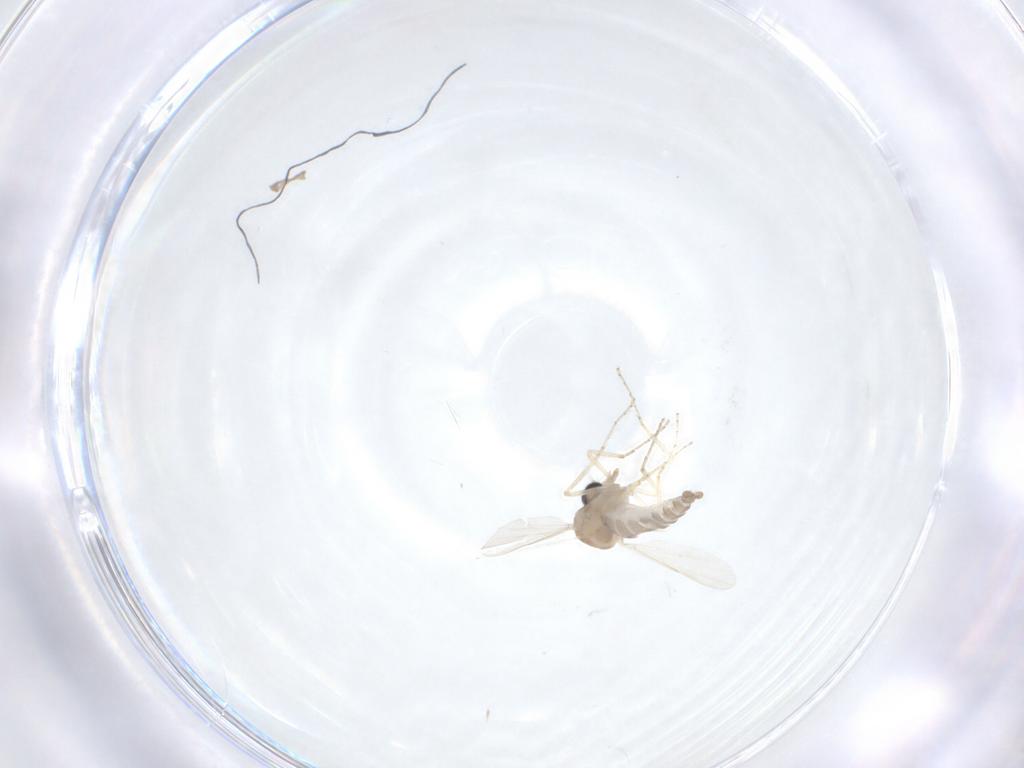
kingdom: Animalia
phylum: Arthropoda
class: Insecta
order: Diptera
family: Ceratopogonidae
